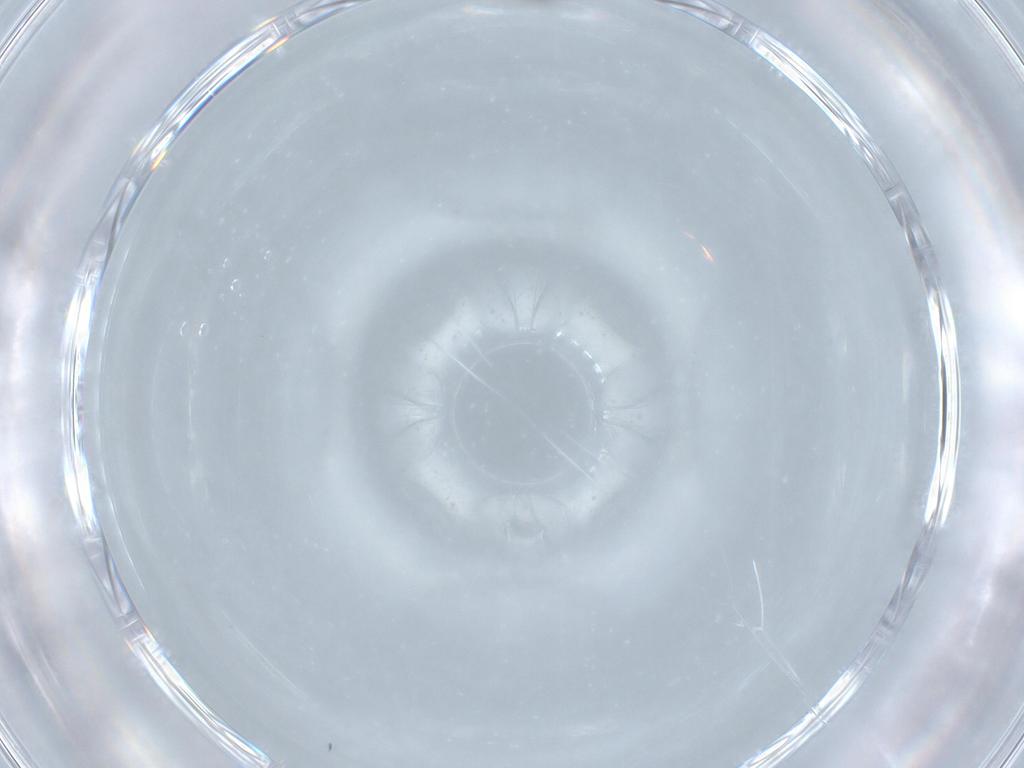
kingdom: Animalia
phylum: Arthropoda
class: Insecta
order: Hymenoptera
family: Aphelinidae
